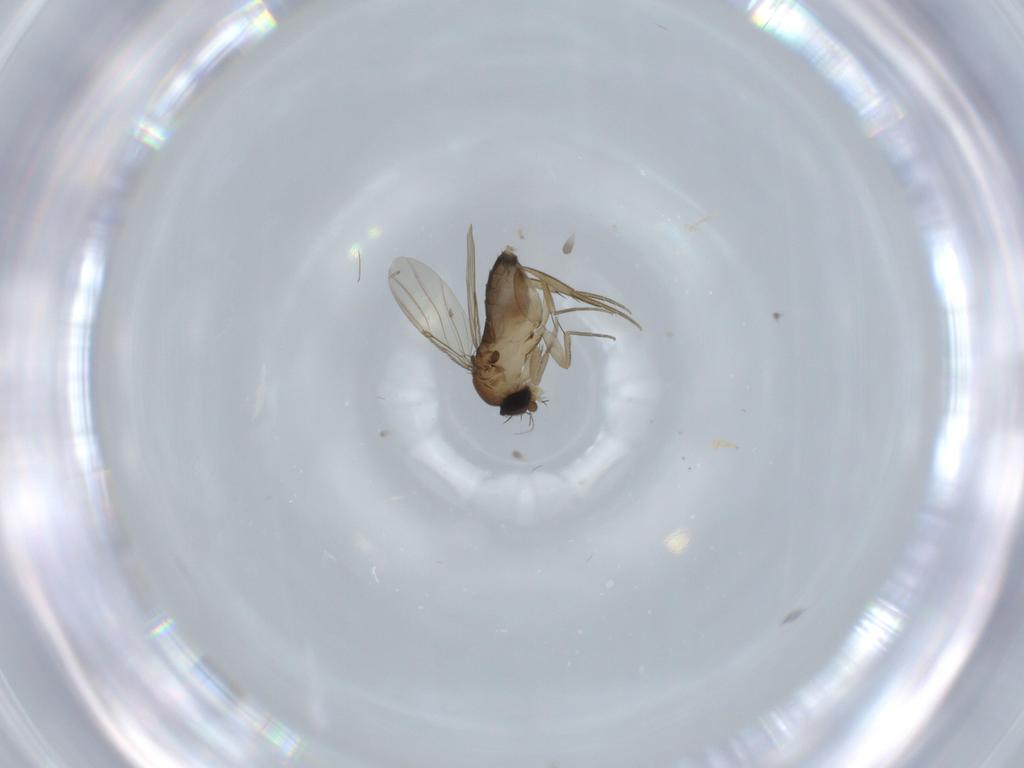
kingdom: Animalia
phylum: Arthropoda
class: Insecta
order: Diptera
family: Phoridae
